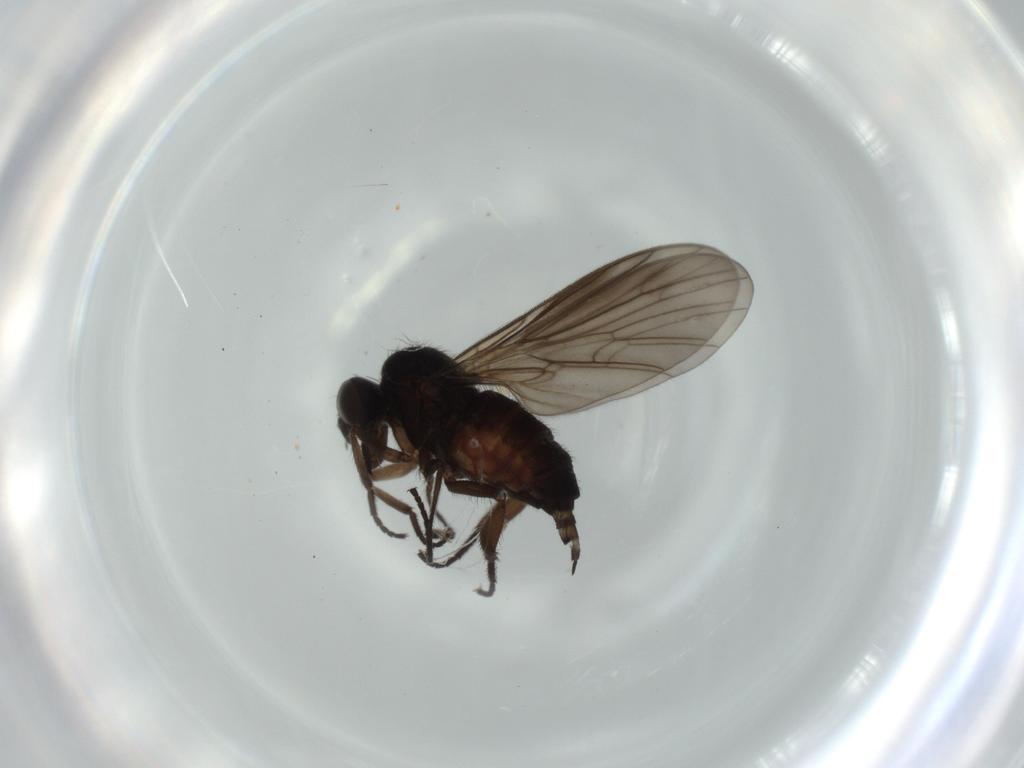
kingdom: Animalia
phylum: Arthropoda
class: Insecta
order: Diptera
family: Empididae
